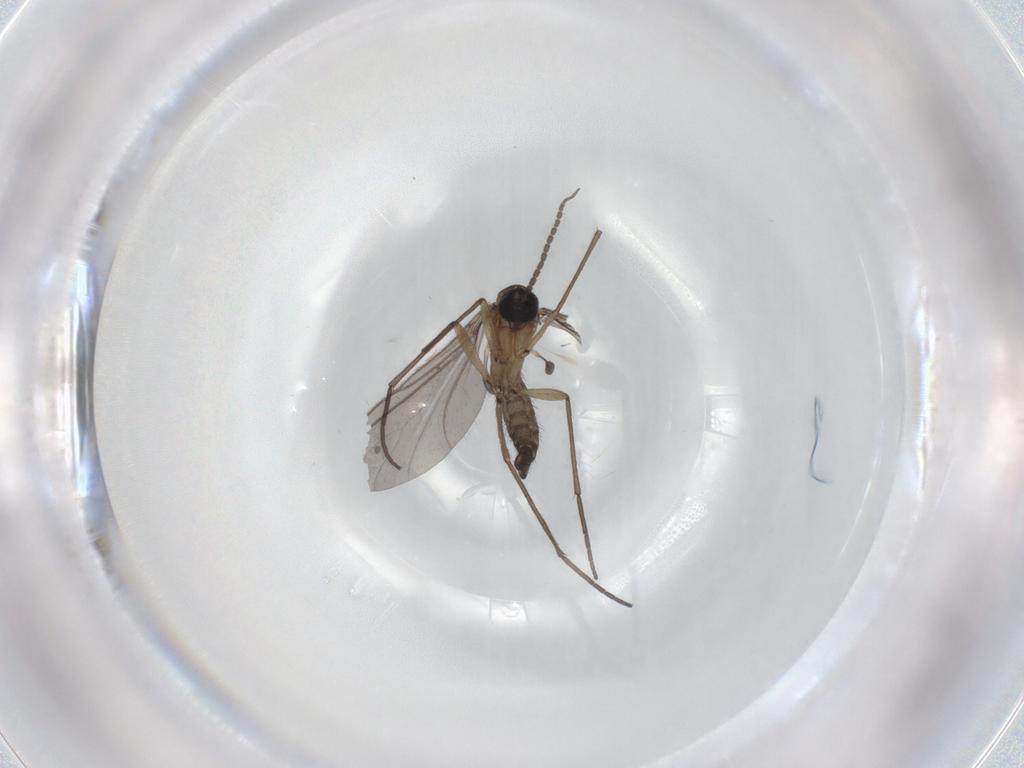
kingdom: Animalia
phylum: Arthropoda
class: Insecta
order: Diptera
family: Sciaridae
